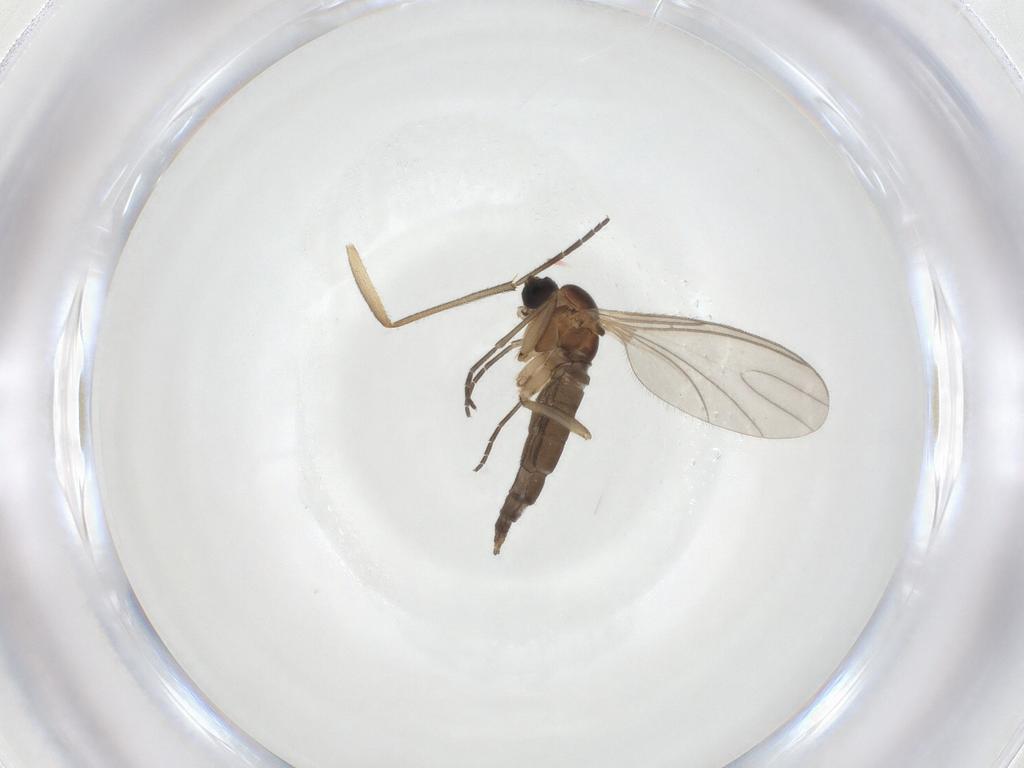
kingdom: Animalia
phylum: Arthropoda
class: Insecta
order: Diptera
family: Sciaridae
